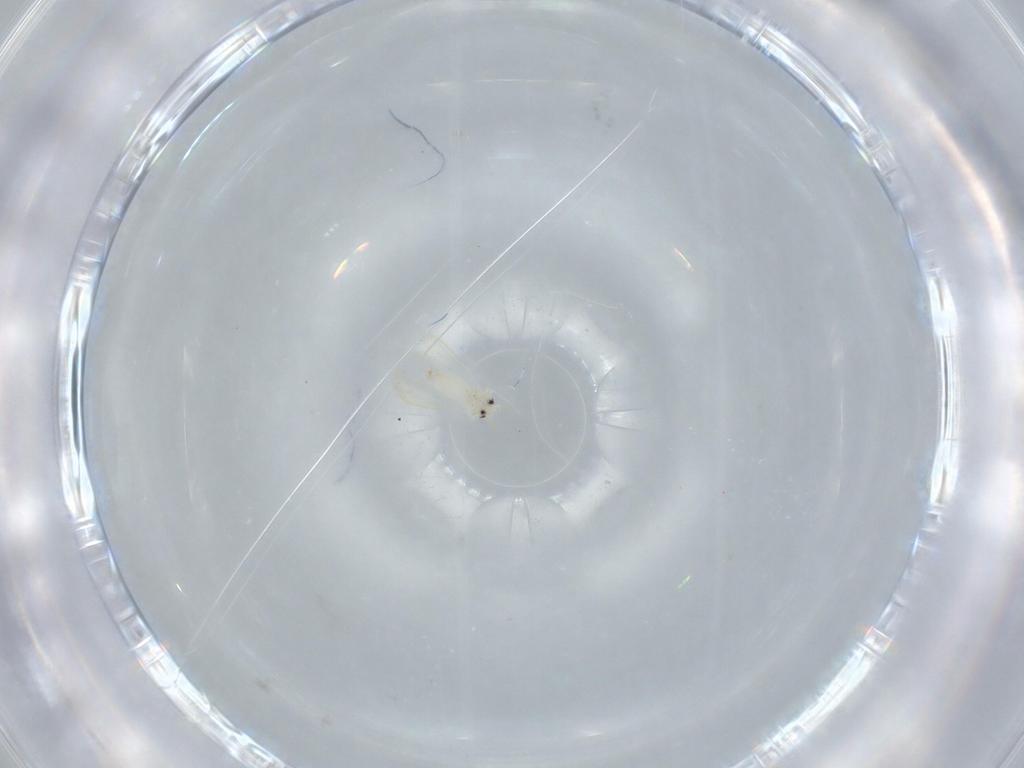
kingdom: Animalia
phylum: Arthropoda
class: Insecta
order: Hemiptera
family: Aleyrodidae
